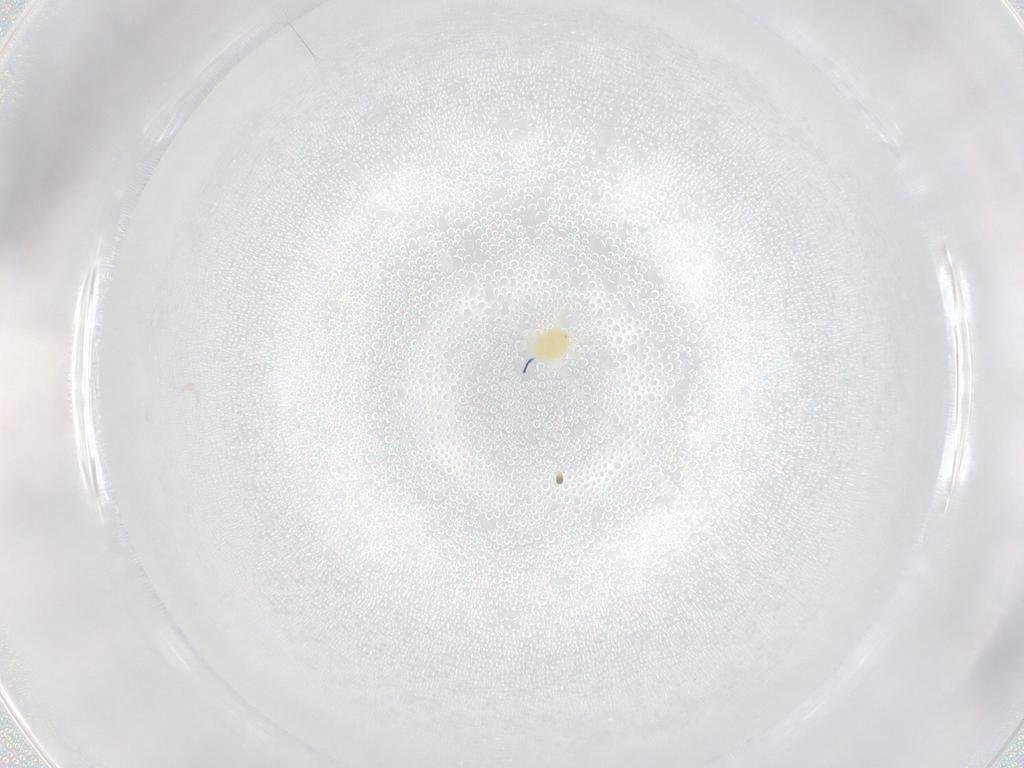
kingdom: Animalia
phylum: Arthropoda
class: Arachnida
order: Trombidiformes
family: Tetranychidae
